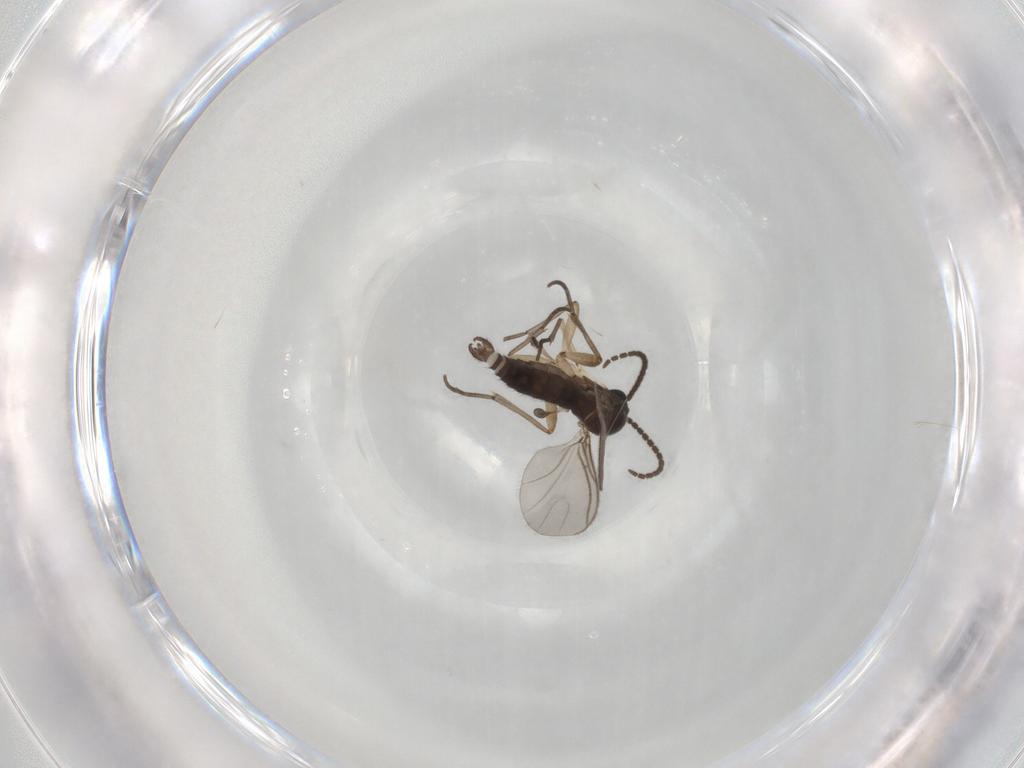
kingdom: Animalia
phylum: Arthropoda
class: Insecta
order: Diptera
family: Sciaridae
